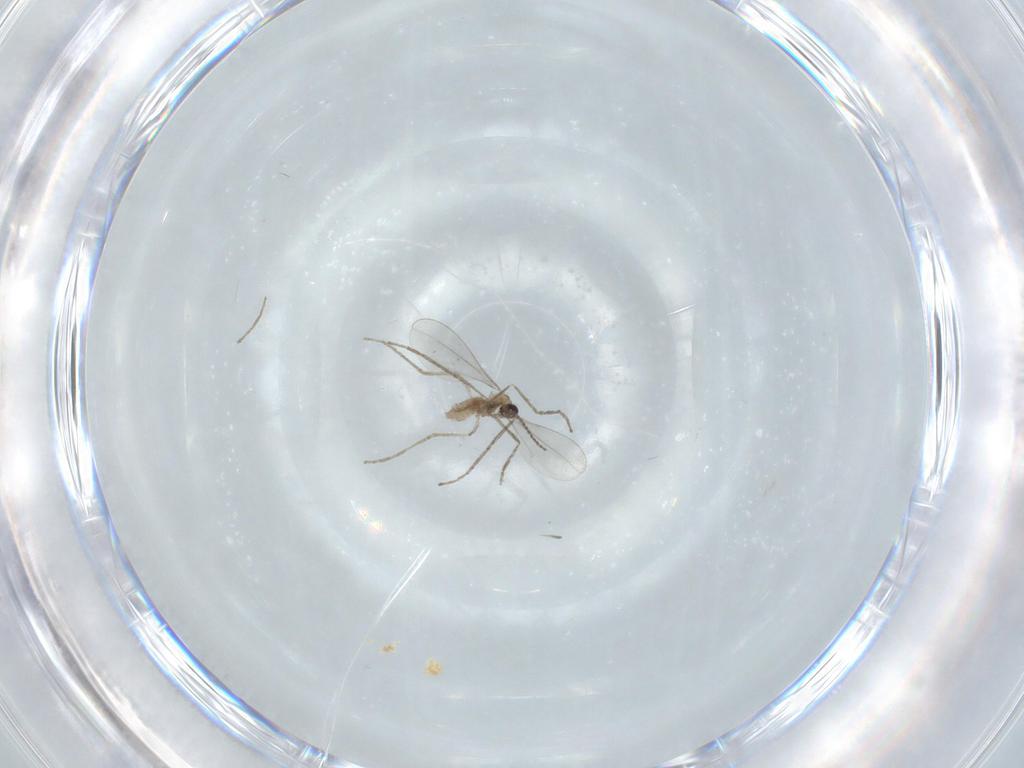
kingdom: Animalia
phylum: Arthropoda
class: Insecta
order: Diptera
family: Cecidomyiidae
